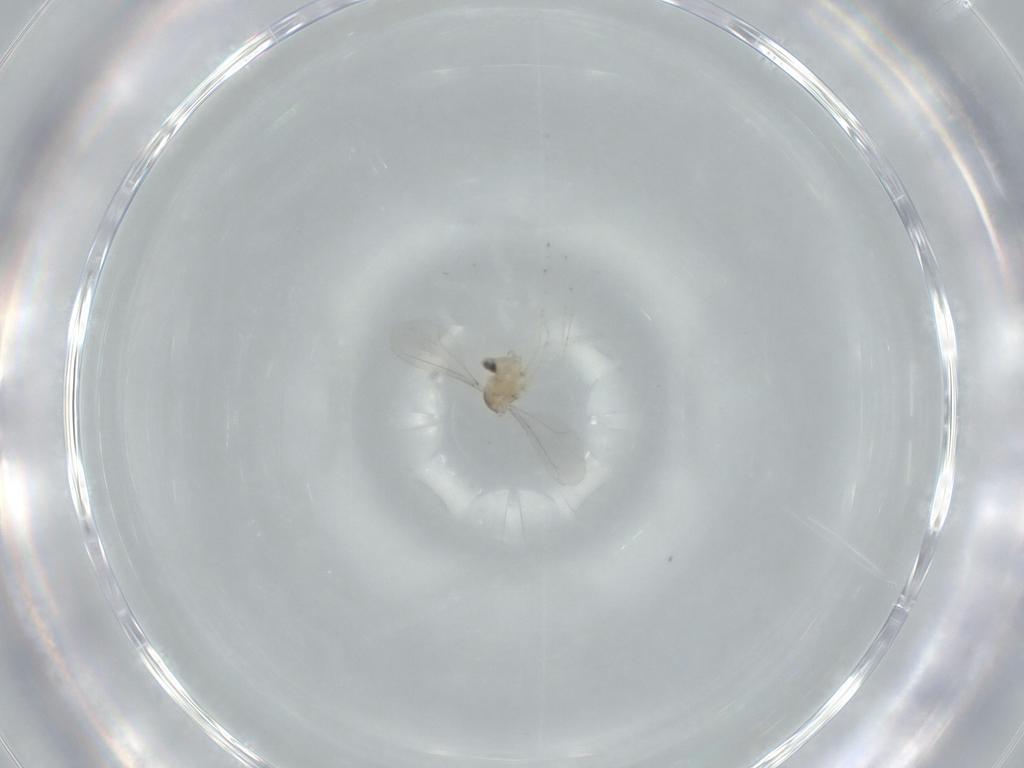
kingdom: Animalia
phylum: Arthropoda
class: Insecta
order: Diptera
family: Cecidomyiidae
